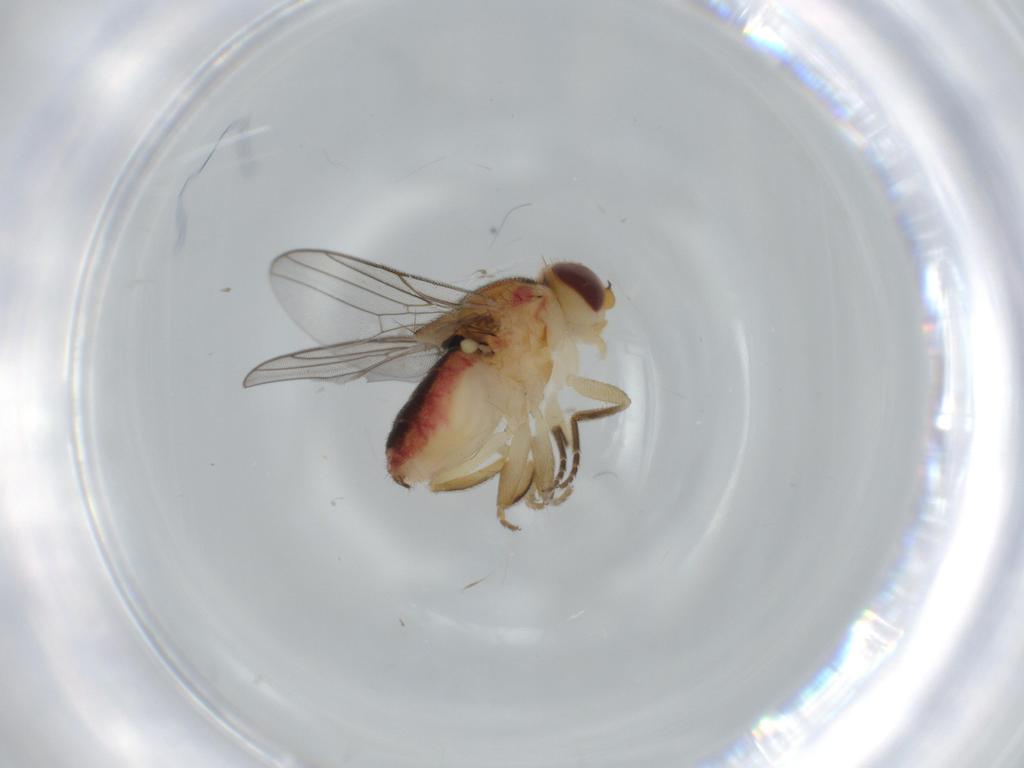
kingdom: Animalia
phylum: Arthropoda
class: Insecta
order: Diptera
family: Chloropidae
